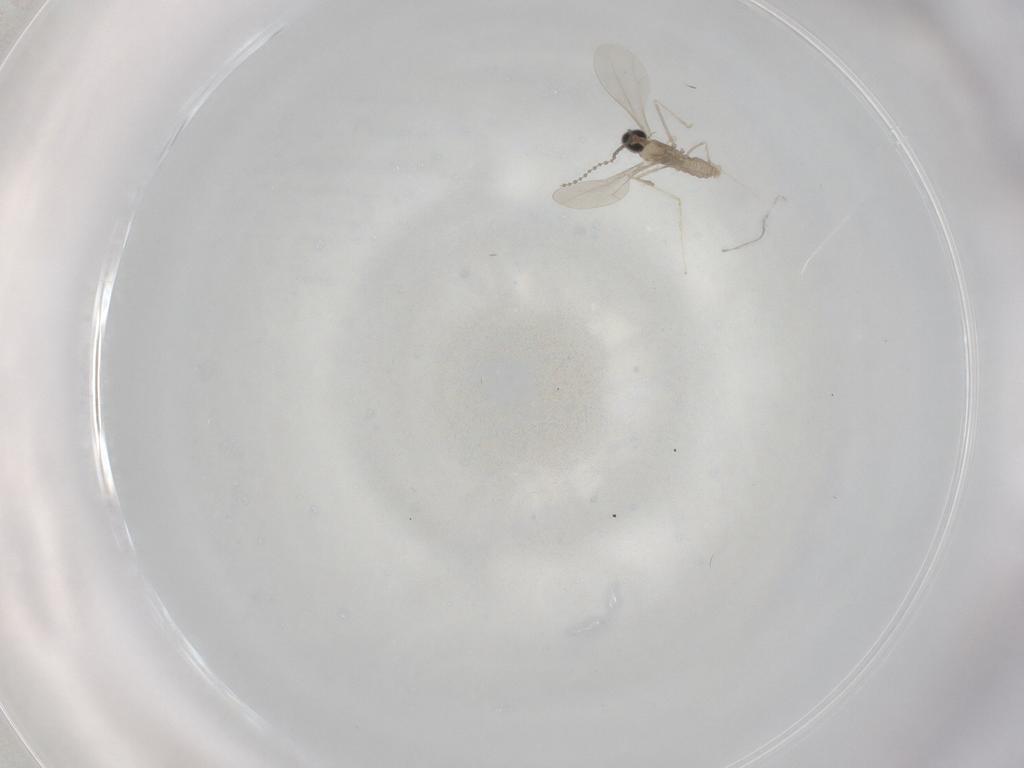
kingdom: Animalia
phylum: Arthropoda
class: Insecta
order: Diptera
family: Cecidomyiidae
